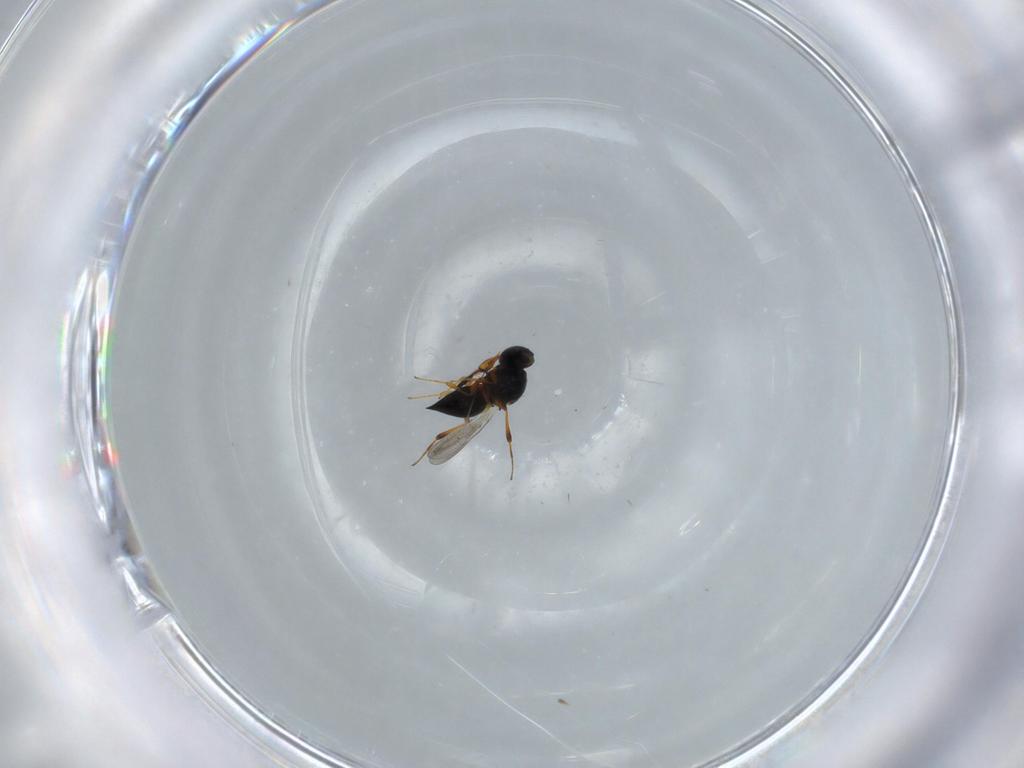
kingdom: Animalia
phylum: Arthropoda
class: Insecta
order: Hymenoptera
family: Platygastridae
